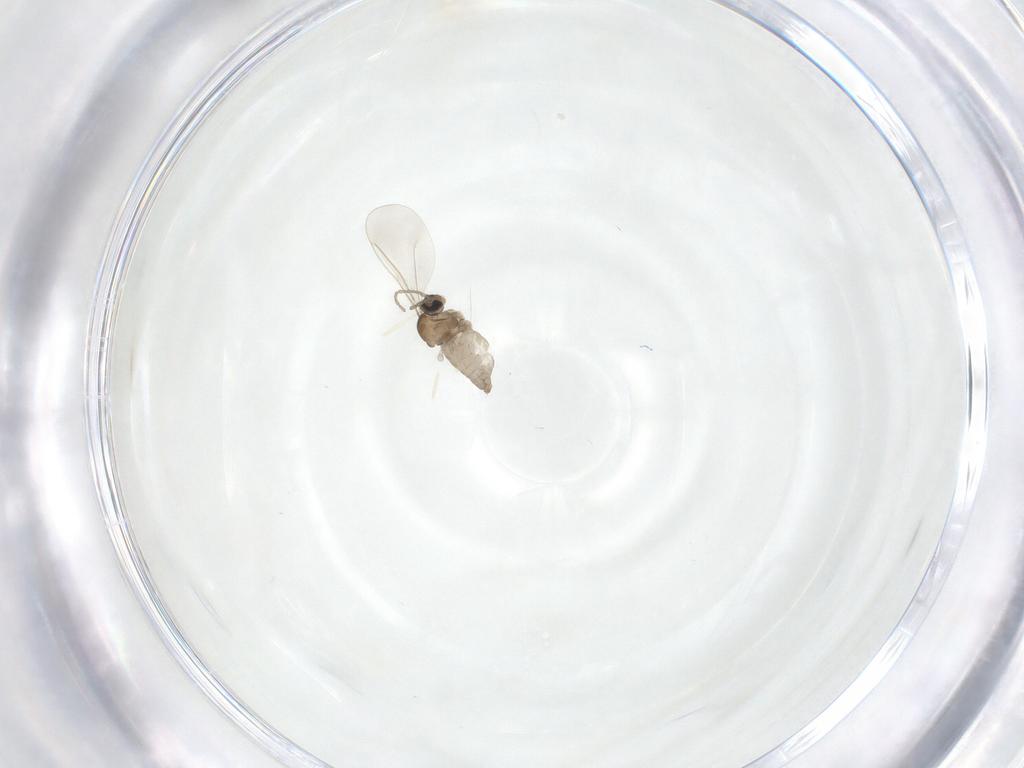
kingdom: Animalia
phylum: Arthropoda
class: Insecta
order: Diptera
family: Cecidomyiidae
